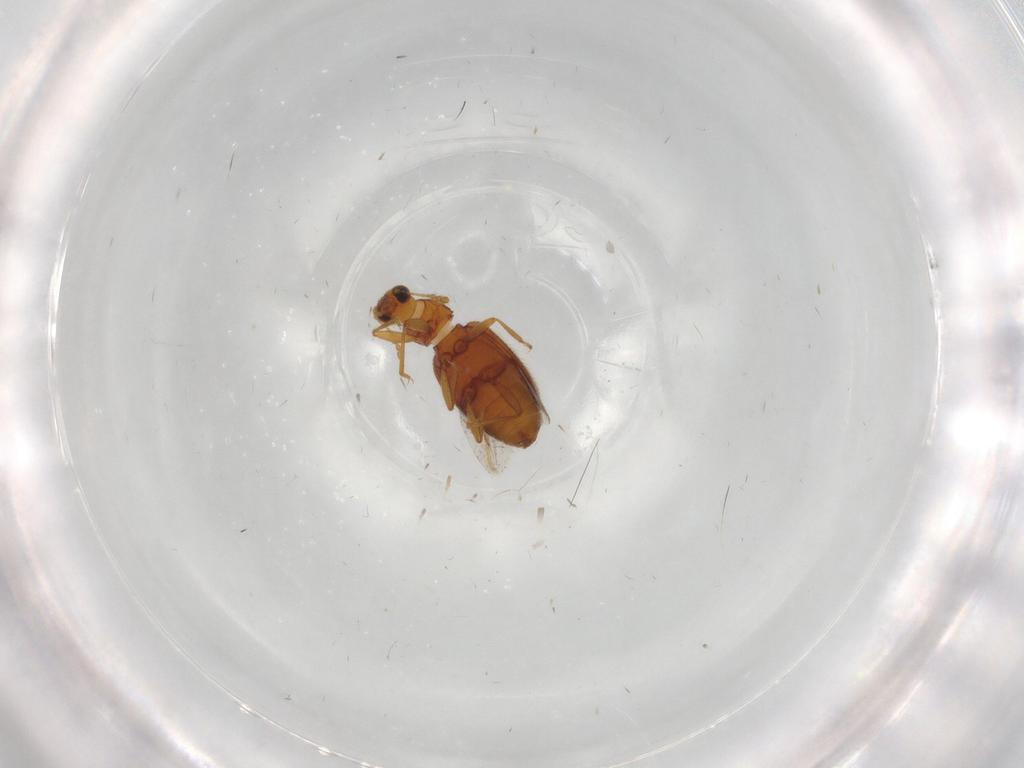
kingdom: Animalia
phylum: Arthropoda
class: Insecta
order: Coleoptera
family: Latridiidae
